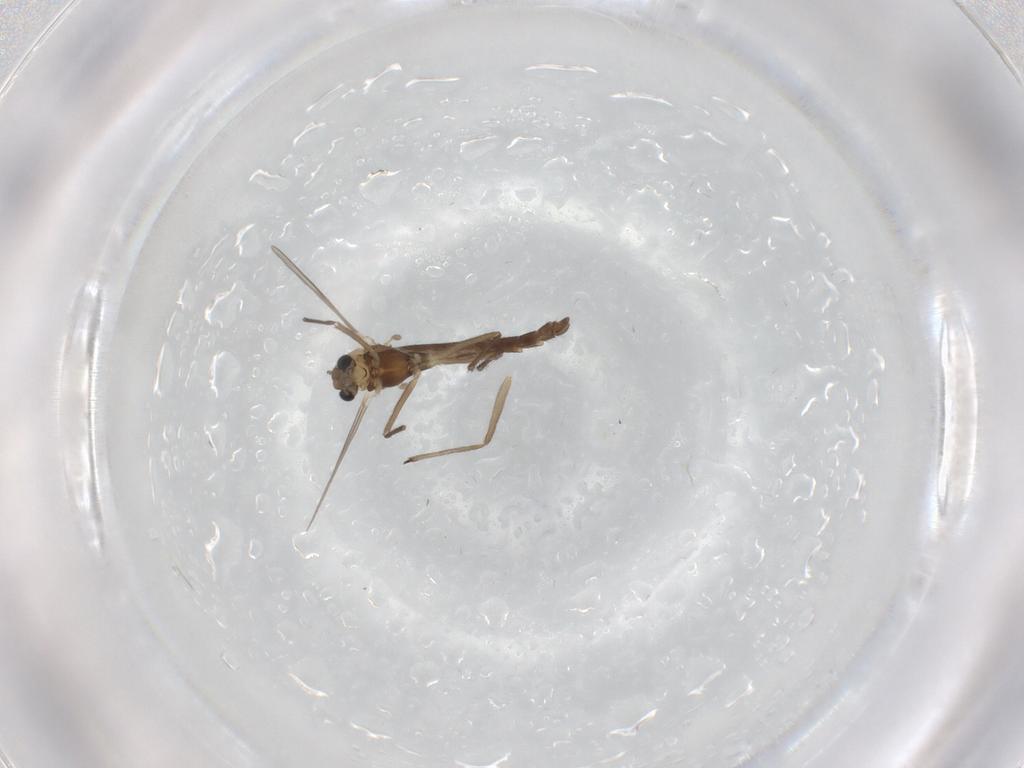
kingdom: Animalia
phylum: Arthropoda
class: Insecta
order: Diptera
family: Chironomidae
